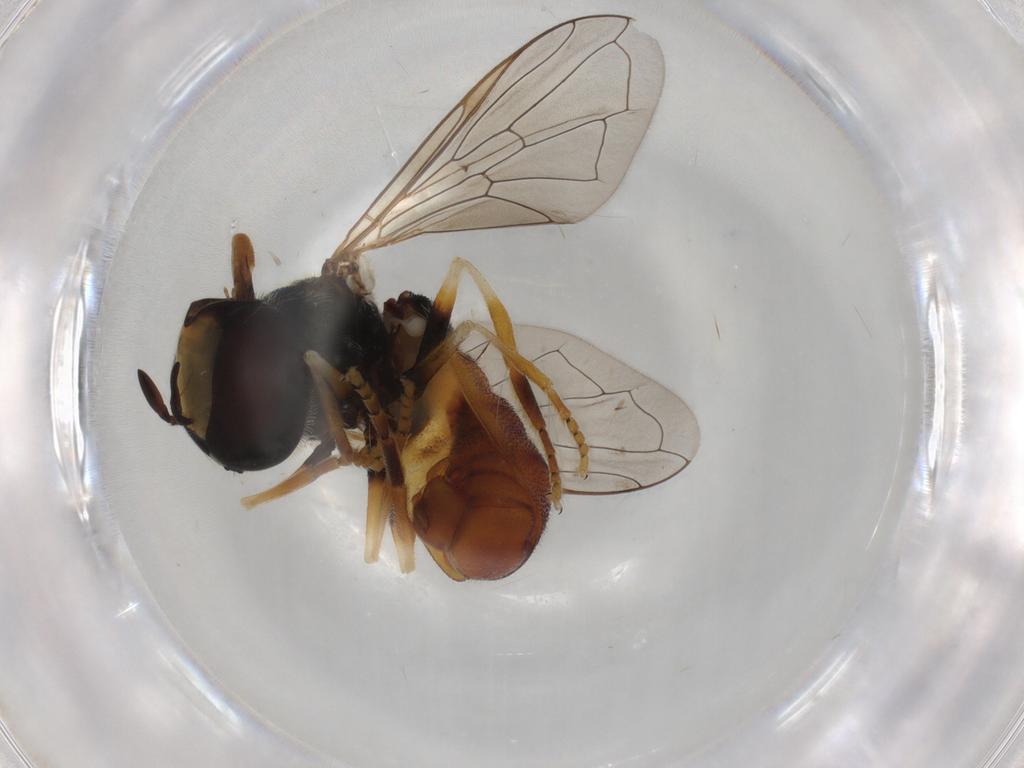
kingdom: Animalia
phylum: Arthropoda
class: Insecta
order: Diptera
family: Syrphidae
